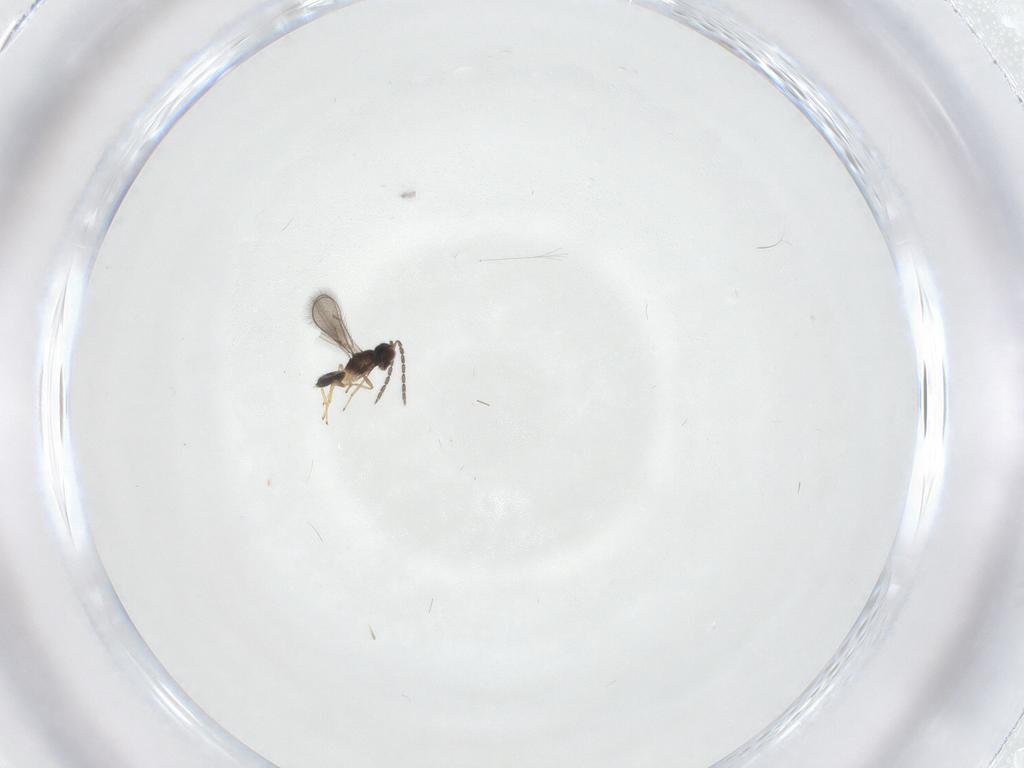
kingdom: Animalia
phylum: Arthropoda
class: Insecta
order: Hymenoptera
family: Eulophidae
